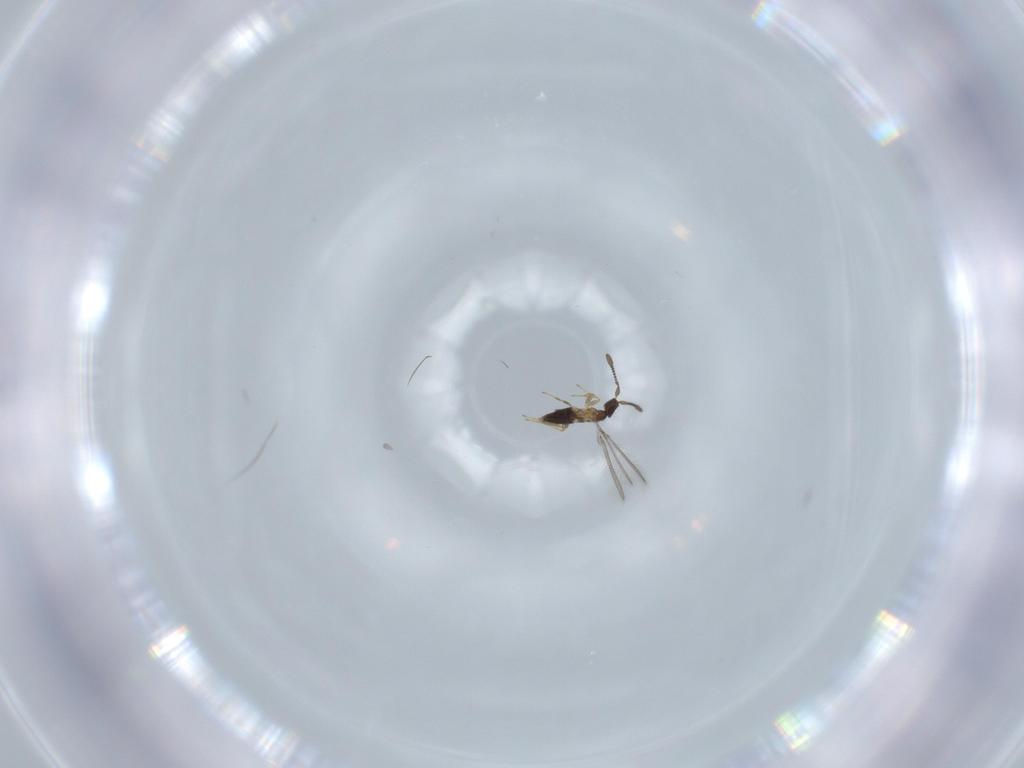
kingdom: Animalia
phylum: Arthropoda
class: Insecta
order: Hymenoptera
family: Mymaridae
